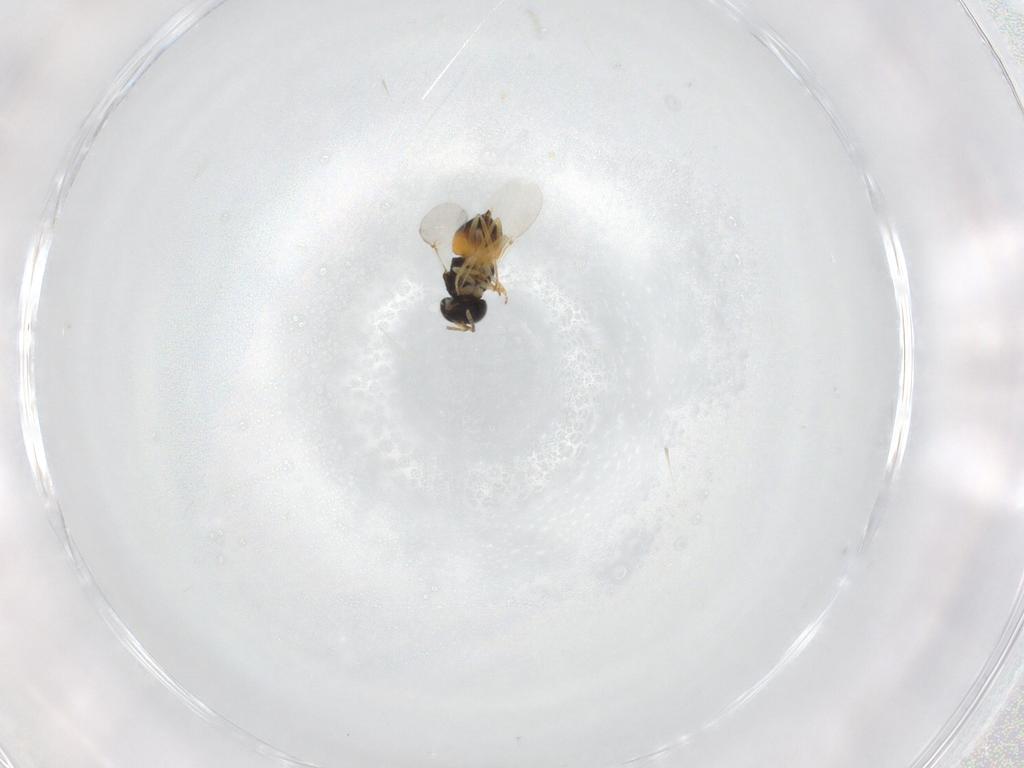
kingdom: Animalia
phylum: Arthropoda
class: Insecta
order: Hymenoptera
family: Encyrtidae
